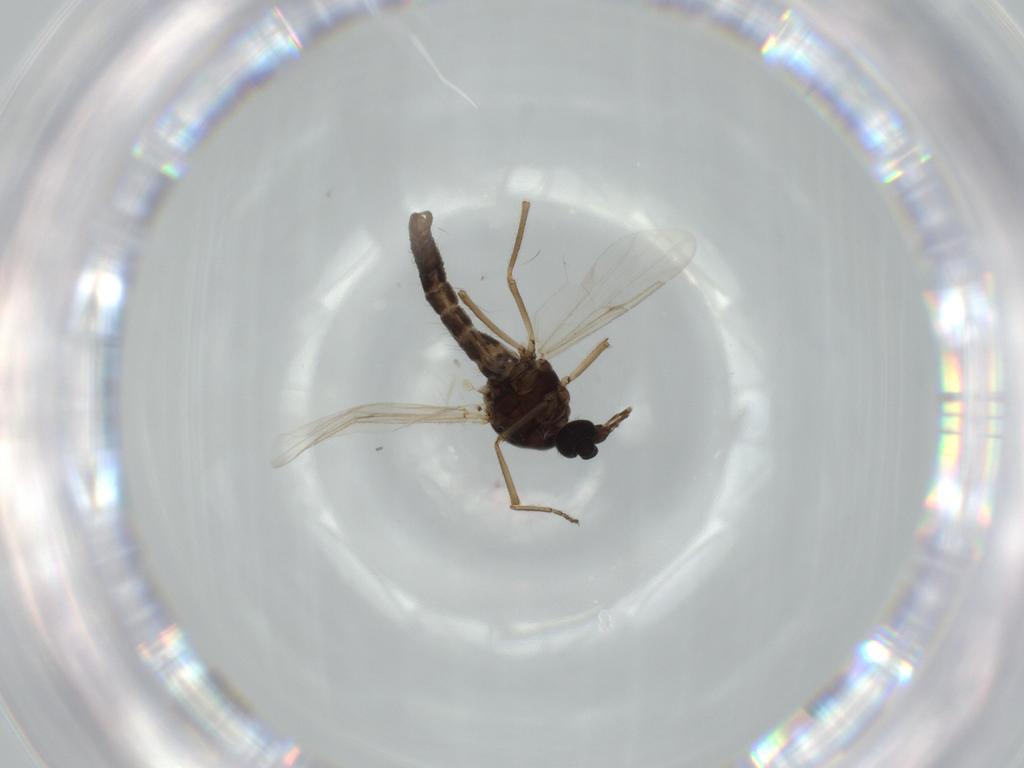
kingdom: Animalia
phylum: Arthropoda
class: Insecta
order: Diptera
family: Ceratopogonidae
